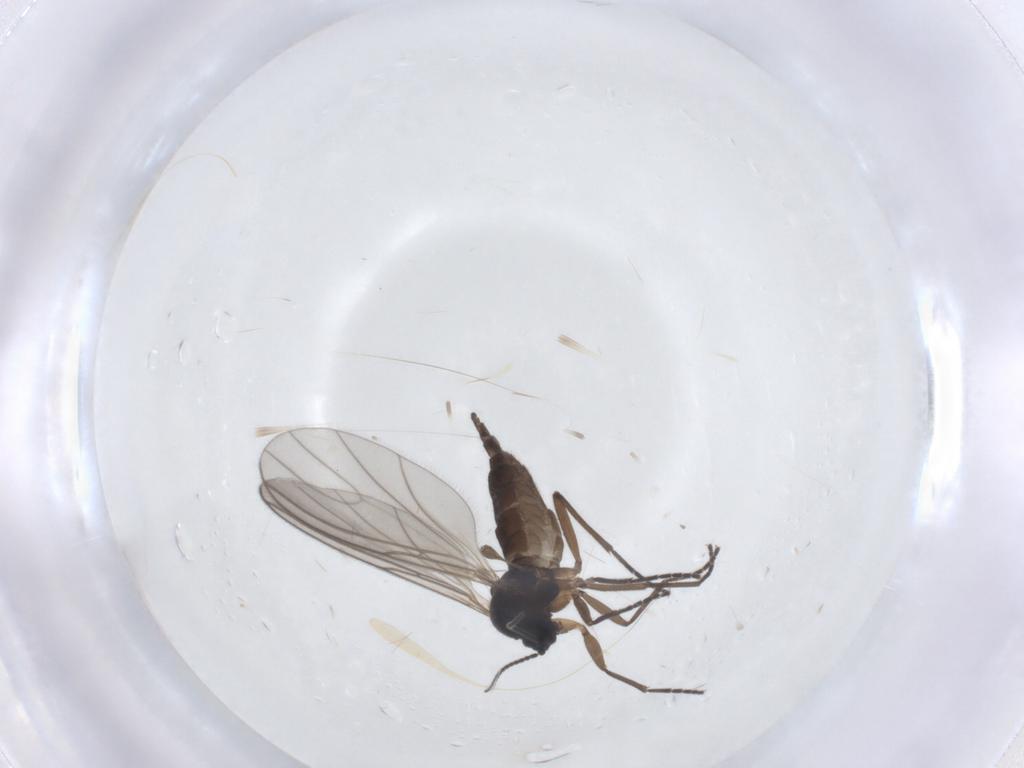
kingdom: Animalia
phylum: Arthropoda
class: Insecta
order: Diptera
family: Sciaridae
